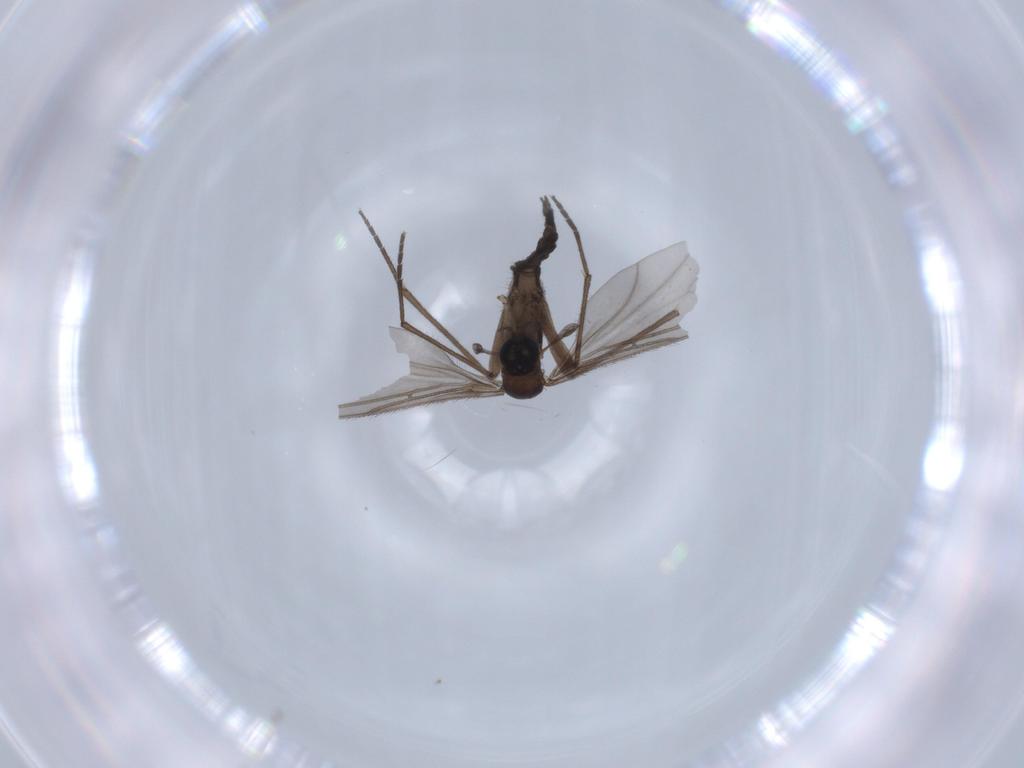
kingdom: Animalia
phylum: Arthropoda
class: Insecta
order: Diptera
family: Sciaridae
